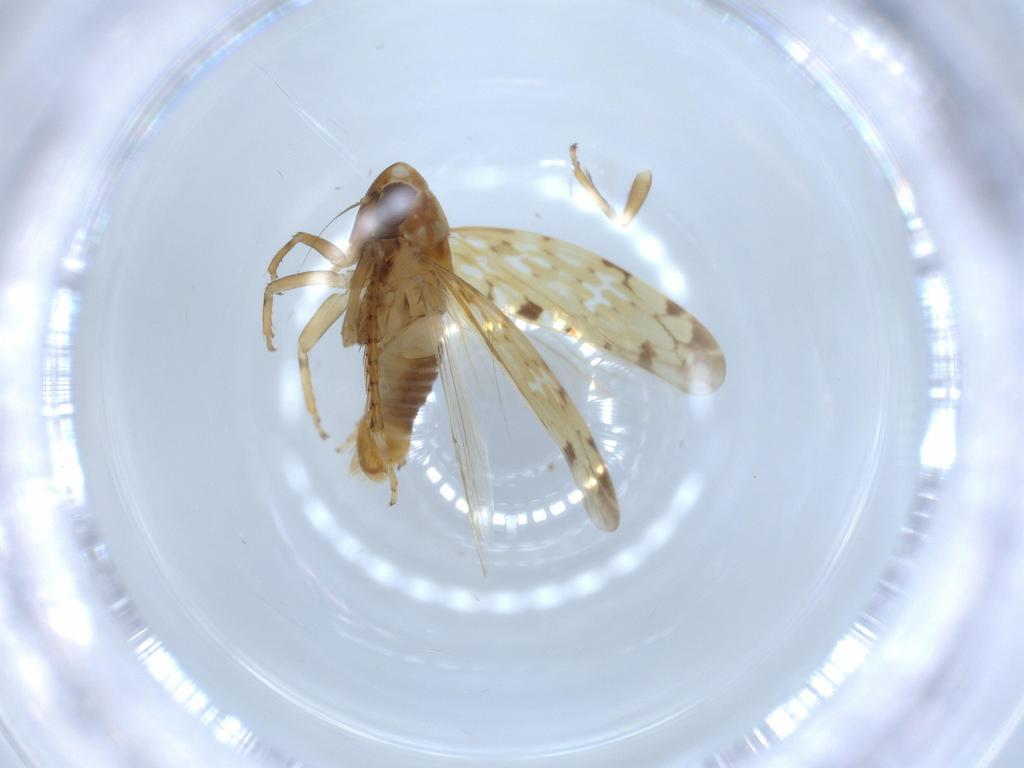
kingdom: Animalia
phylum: Arthropoda
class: Insecta
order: Hemiptera
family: Cicadellidae
